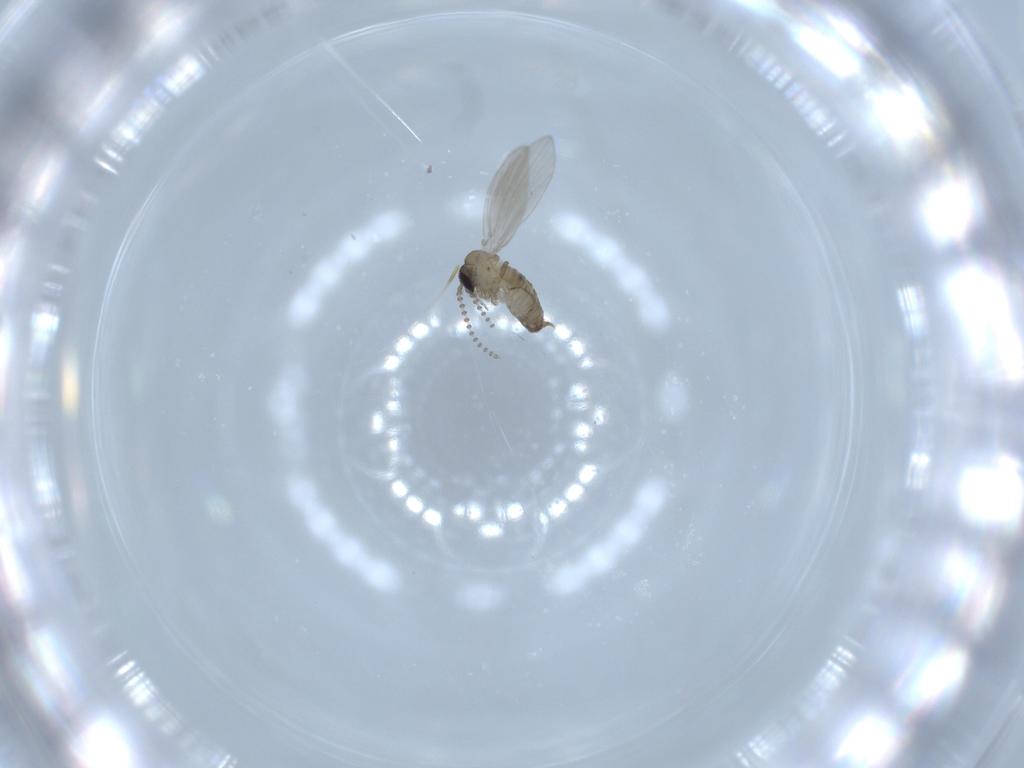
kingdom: Animalia
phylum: Arthropoda
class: Insecta
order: Diptera
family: Psychodidae
